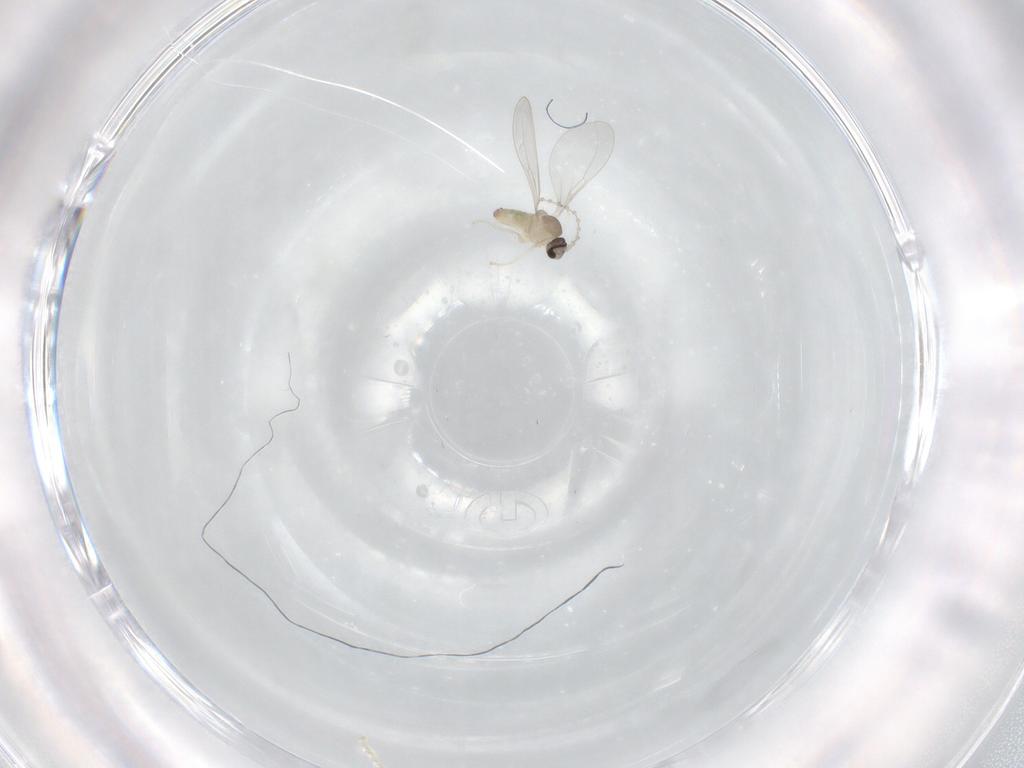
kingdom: Animalia
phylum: Arthropoda
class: Insecta
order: Diptera
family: Cecidomyiidae
